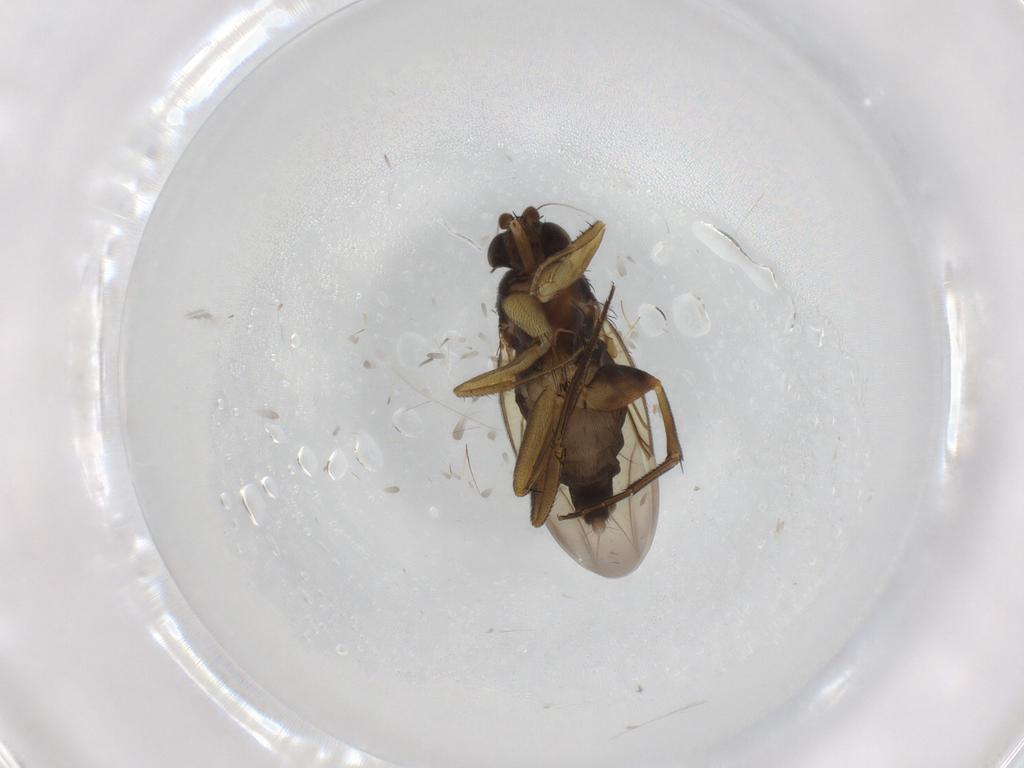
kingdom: Animalia
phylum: Arthropoda
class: Insecta
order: Diptera
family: Phoridae
